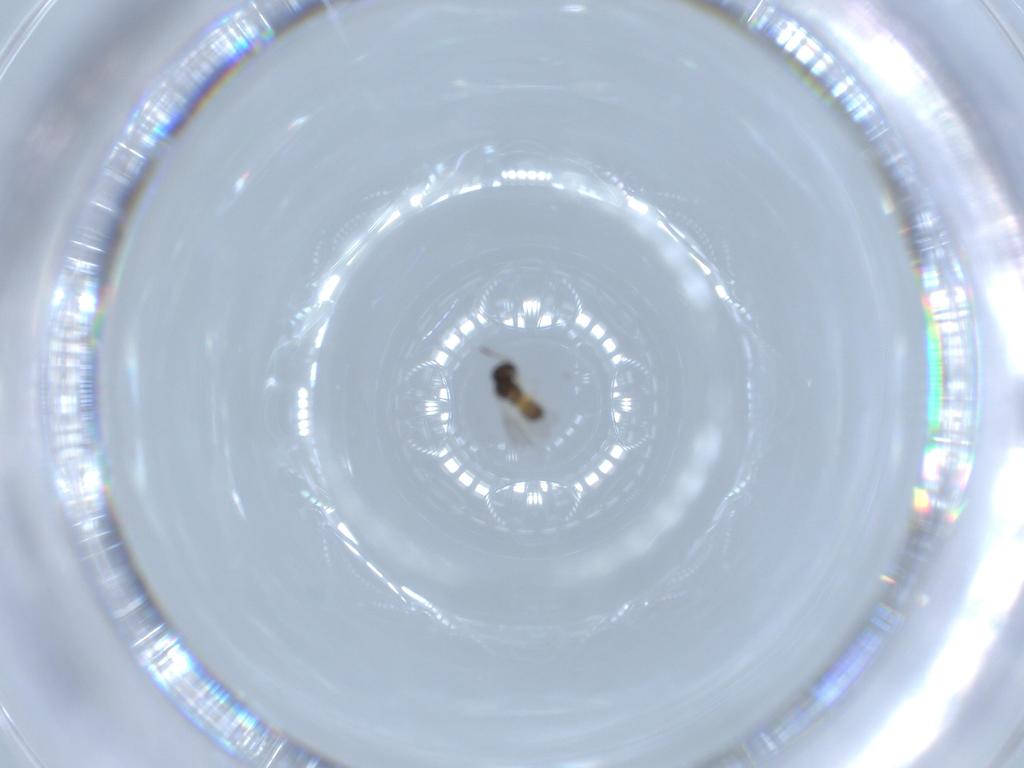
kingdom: Animalia
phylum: Arthropoda
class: Insecta
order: Hymenoptera
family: Scelionidae
